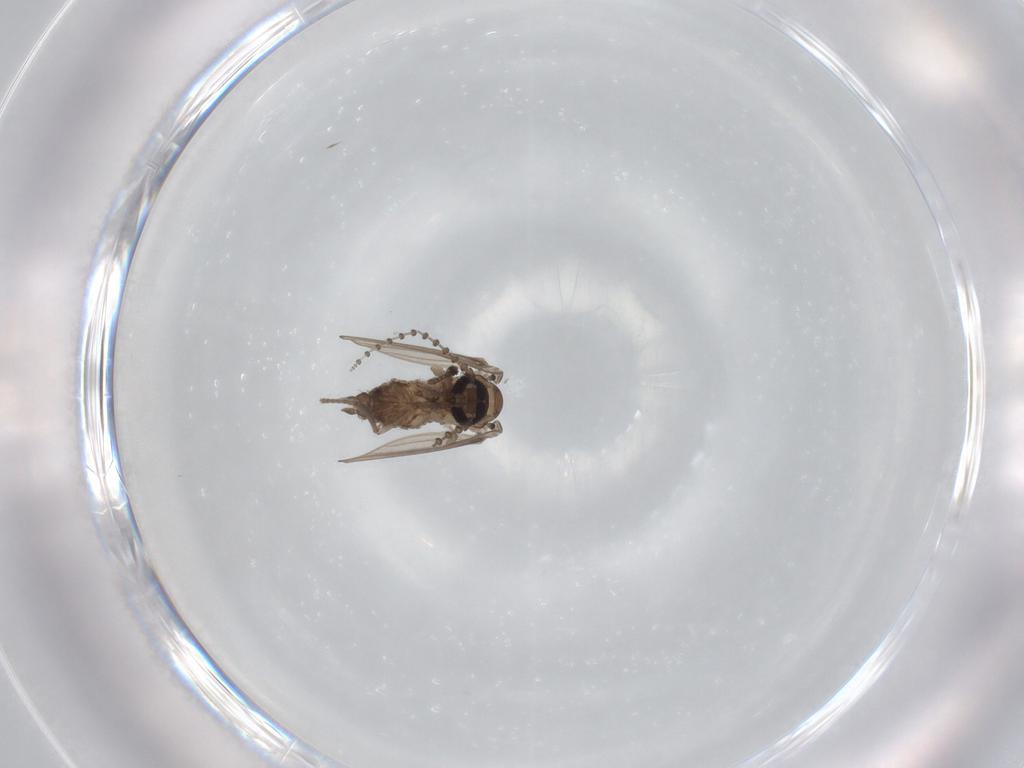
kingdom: Animalia
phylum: Arthropoda
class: Insecta
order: Diptera
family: Psychodidae
